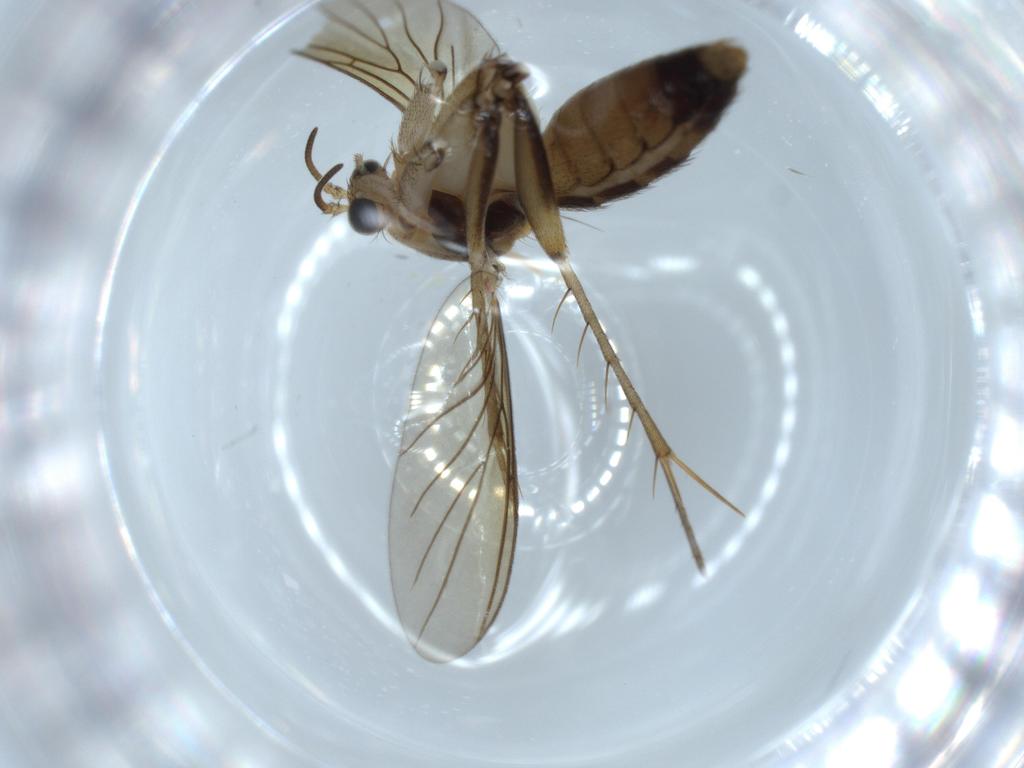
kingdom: Animalia
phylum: Arthropoda
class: Insecta
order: Diptera
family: Mycetophilidae
